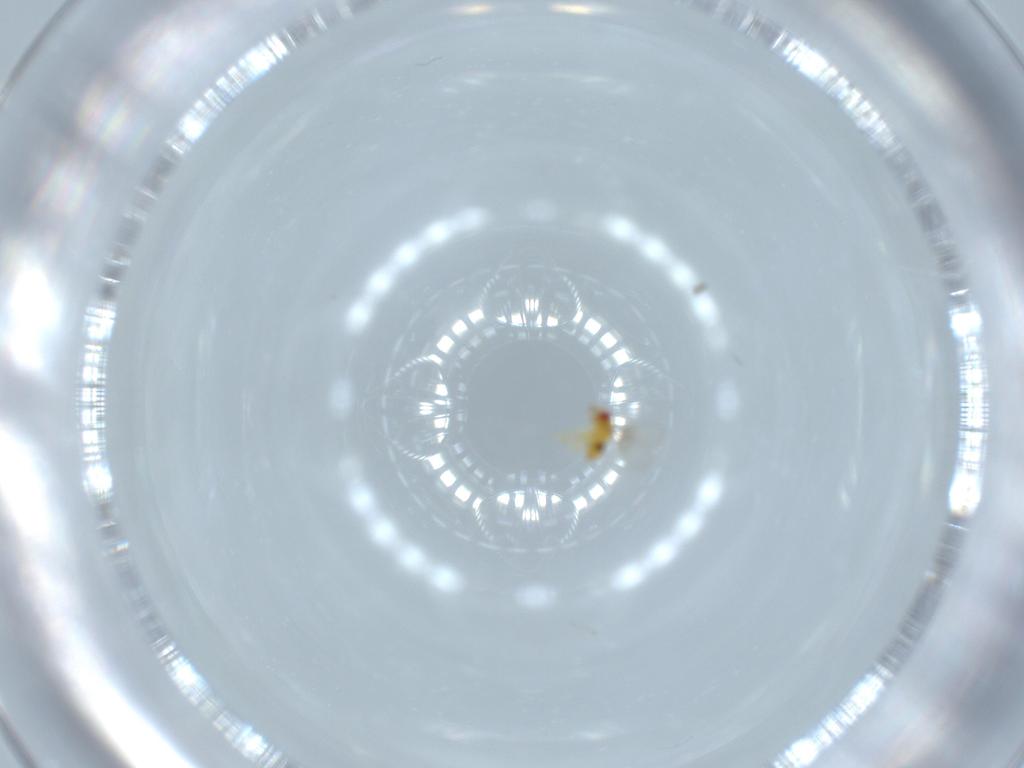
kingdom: Animalia
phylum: Arthropoda
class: Insecta
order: Hymenoptera
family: Trichogrammatidae
